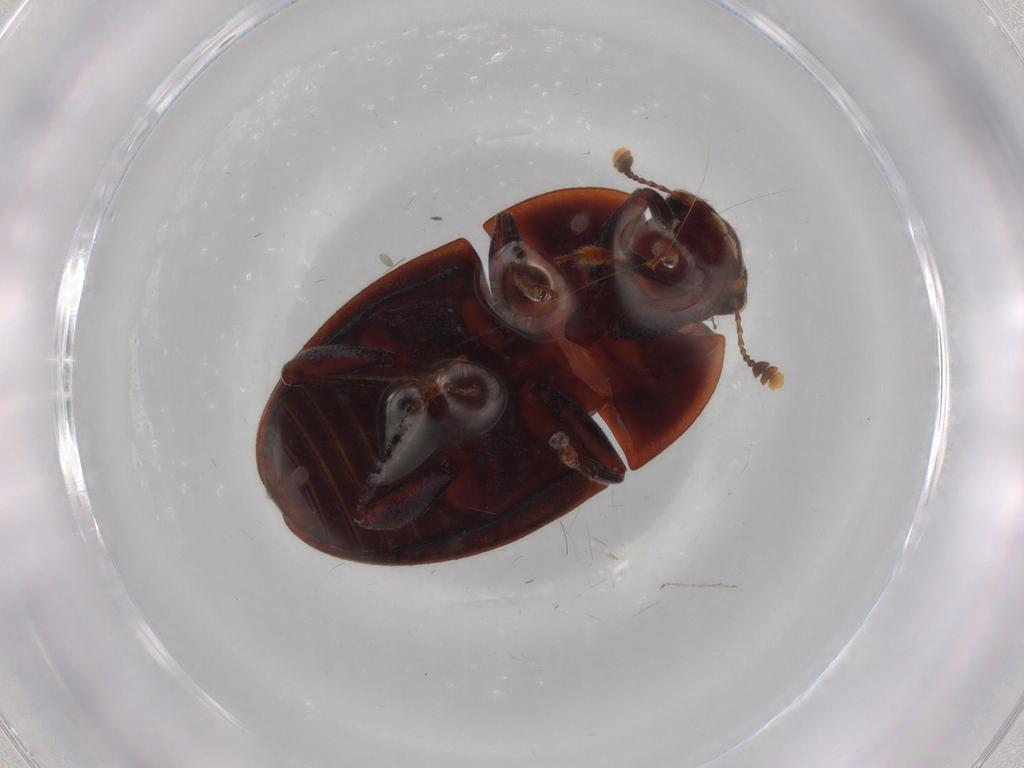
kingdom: Animalia
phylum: Arthropoda
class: Insecta
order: Coleoptera
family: Nitidulidae
